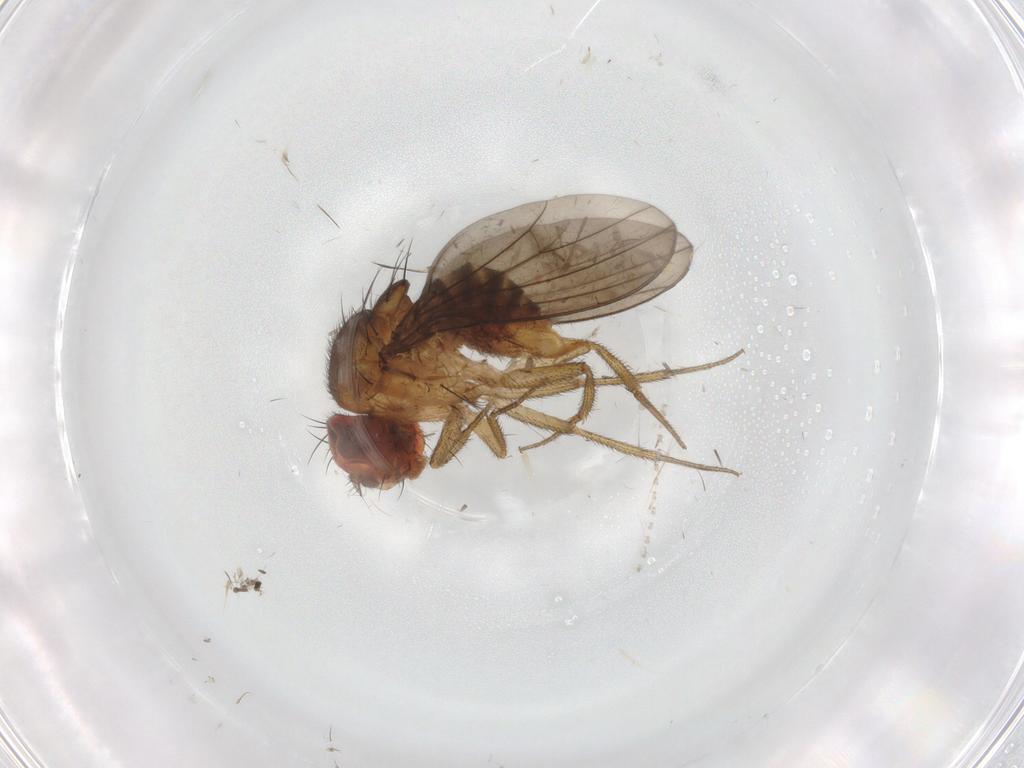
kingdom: Animalia
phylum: Arthropoda
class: Insecta
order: Diptera
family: Drosophilidae
